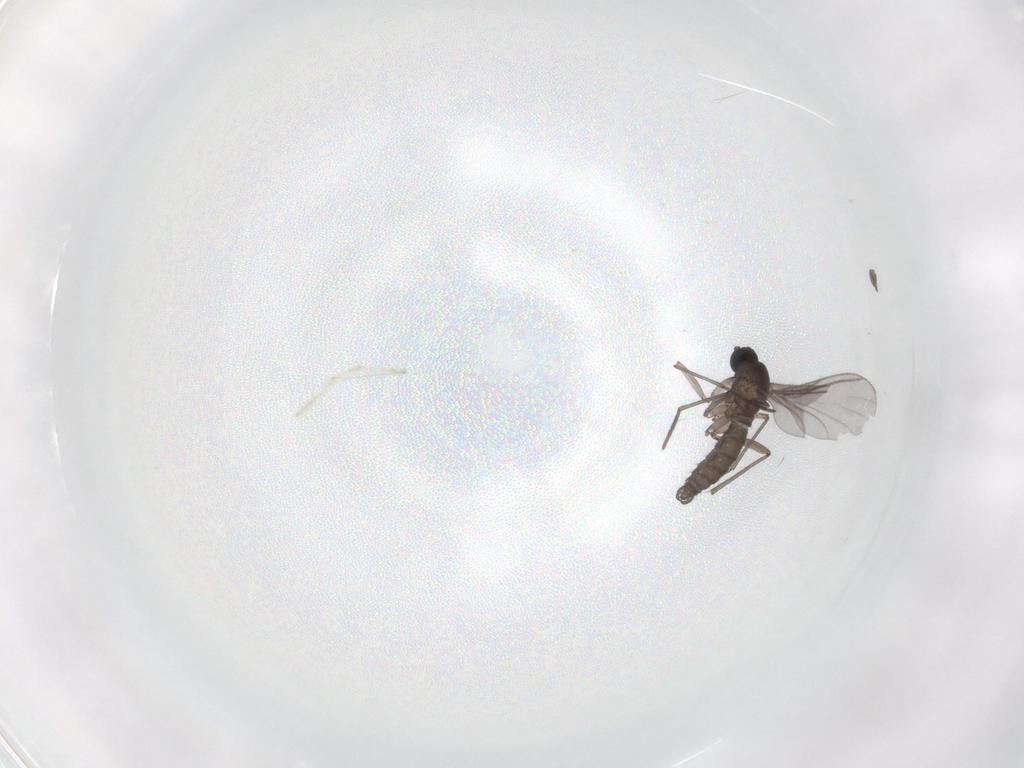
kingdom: Animalia
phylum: Arthropoda
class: Insecta
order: Diptera
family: Chironomidae
